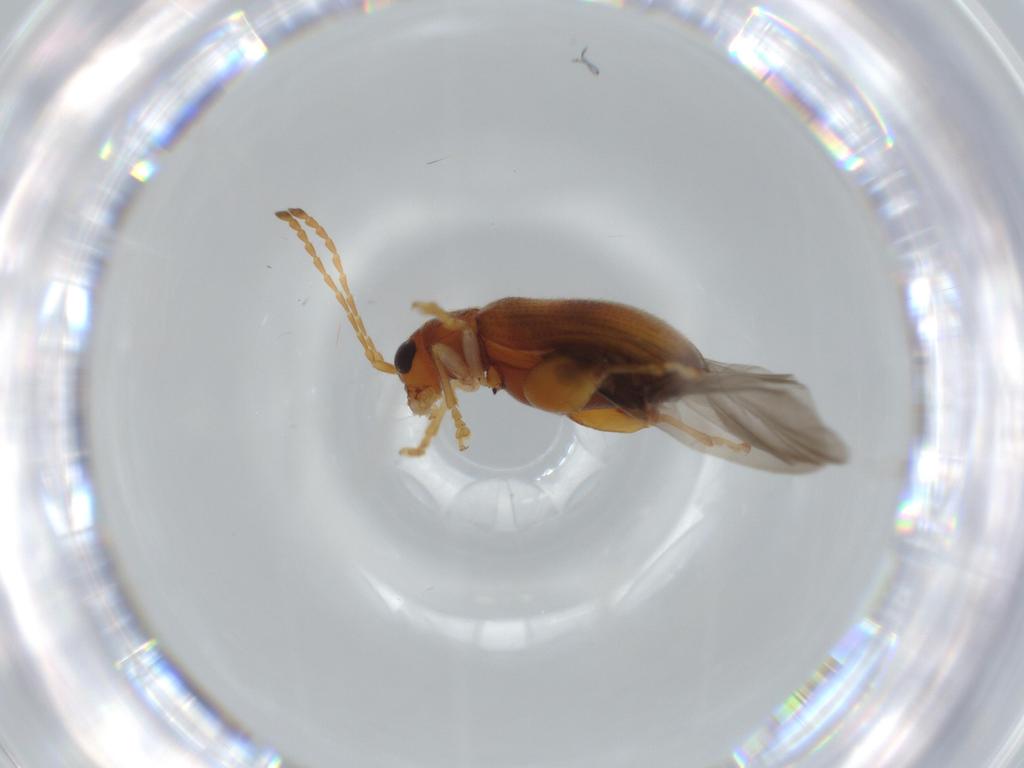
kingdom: Animalia
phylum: Arthropoda
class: Insecta
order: Coleoptera
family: Chrysomelidae
